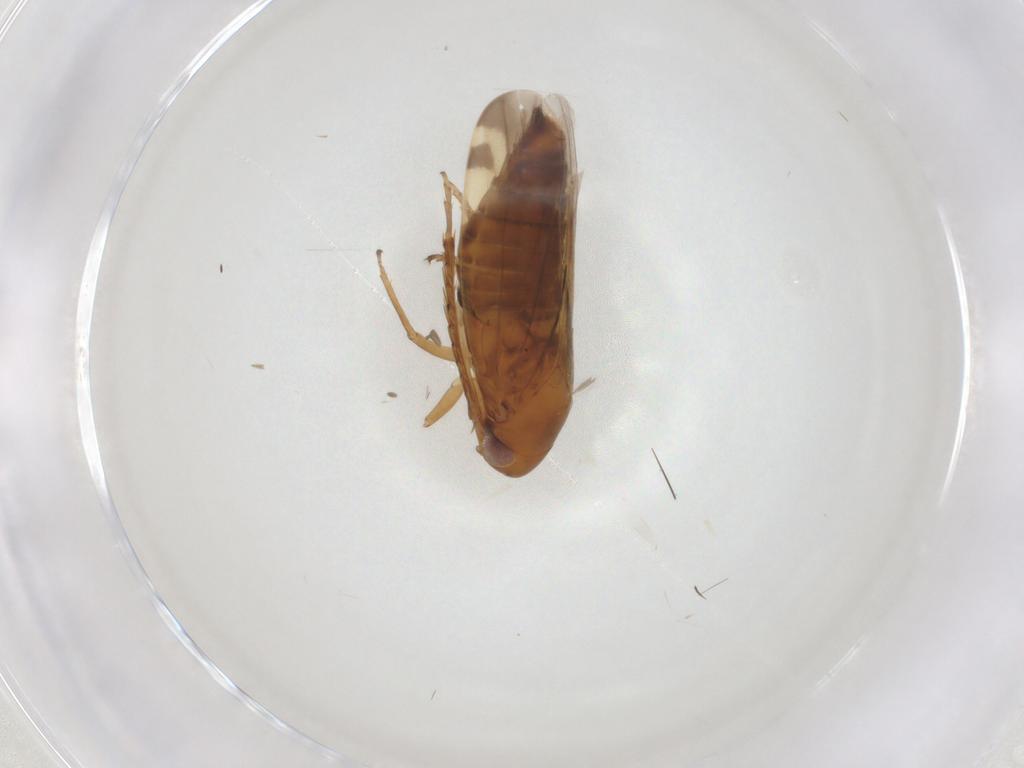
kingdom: Animalia
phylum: Arthropoda
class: Insecta
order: Hemiptera
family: Cicadellidae
